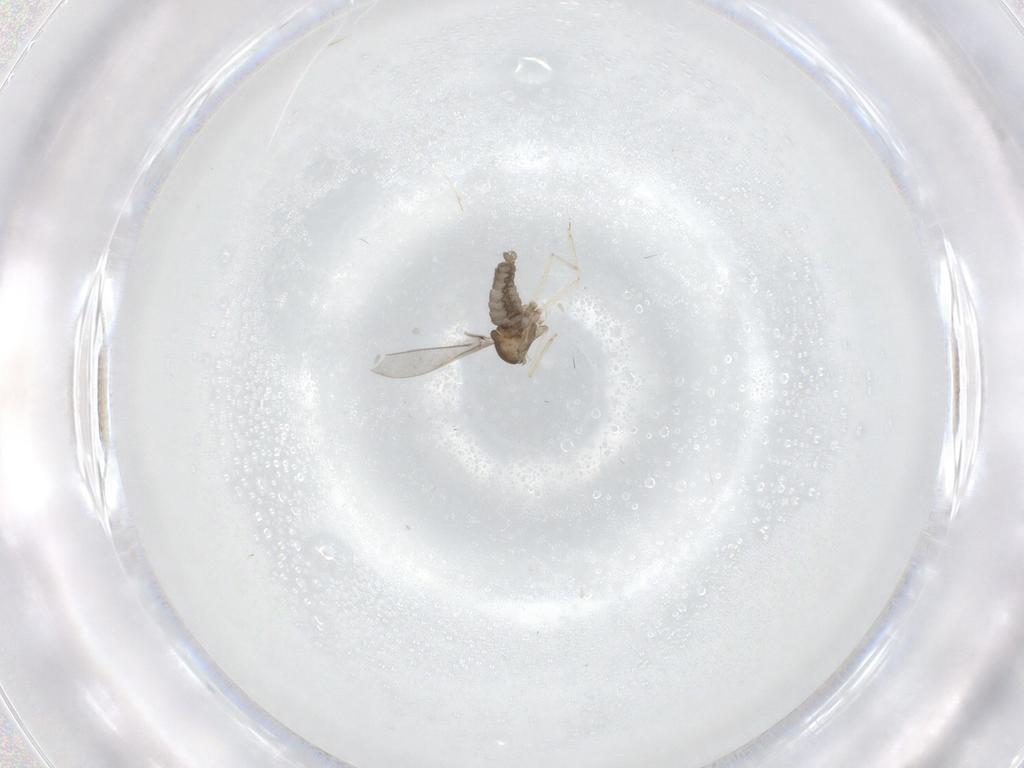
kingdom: Animalia
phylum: Arthropoda
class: Insecta
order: Diptera
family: Cecidomyiidae
